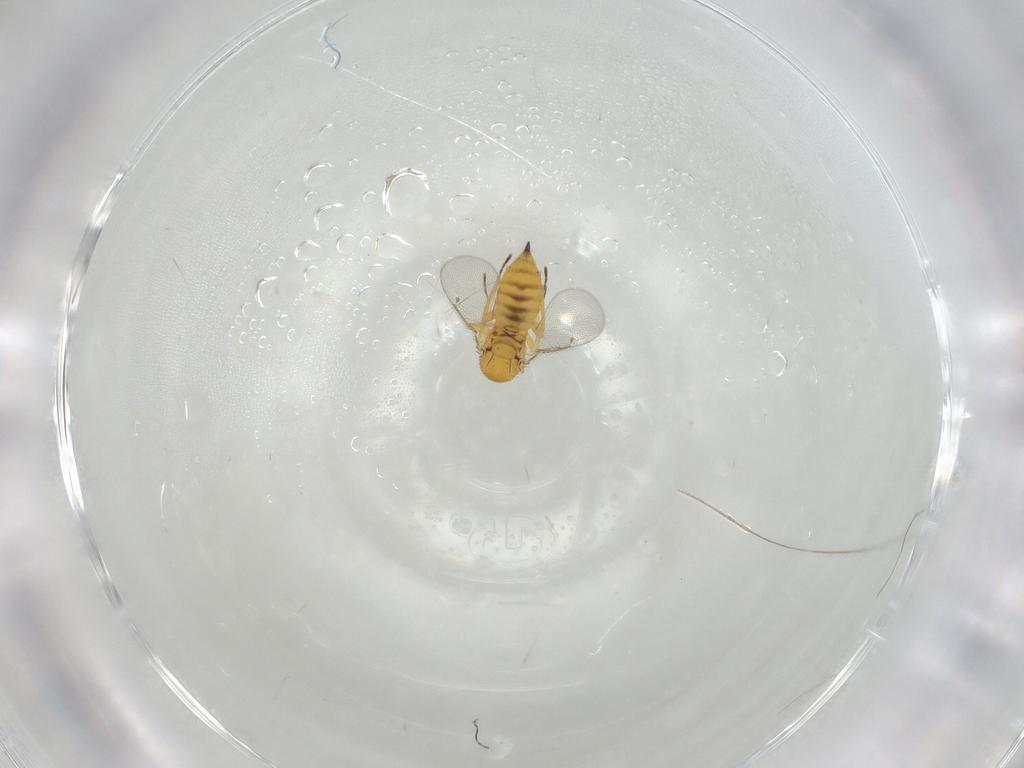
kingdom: Animalia
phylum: Arthropoda
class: Insecta
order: Hymenoptera
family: Eulophidae
